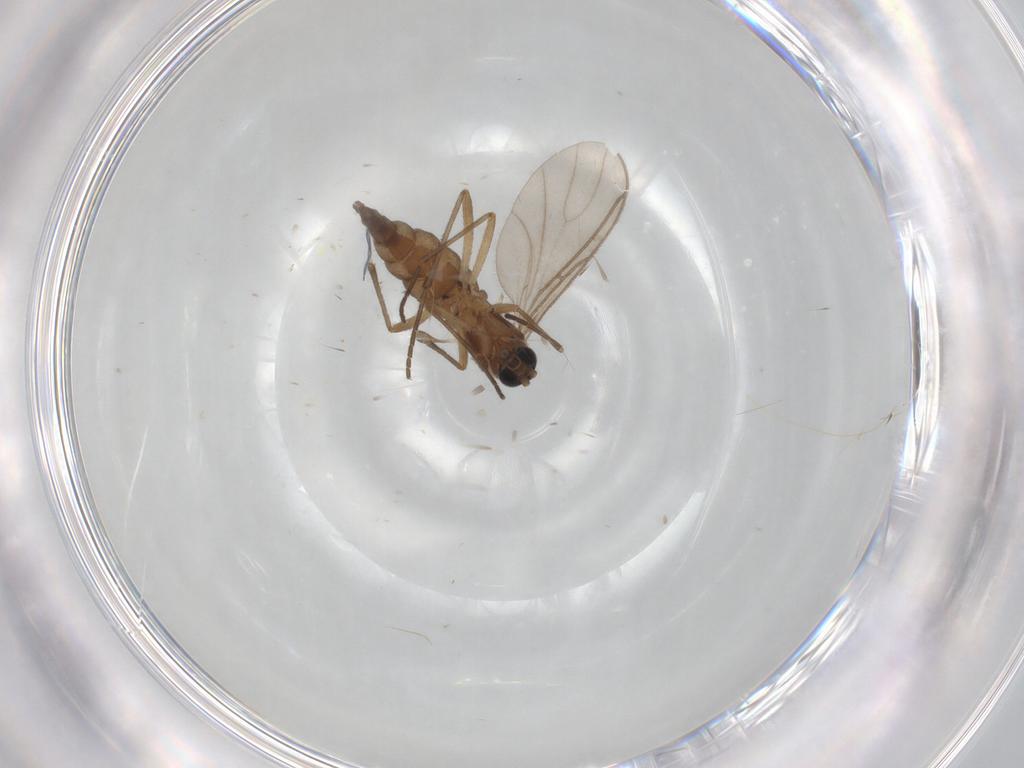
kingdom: Animalia
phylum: Arthropoda
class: Insecta
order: Diptera
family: Sciaridae
